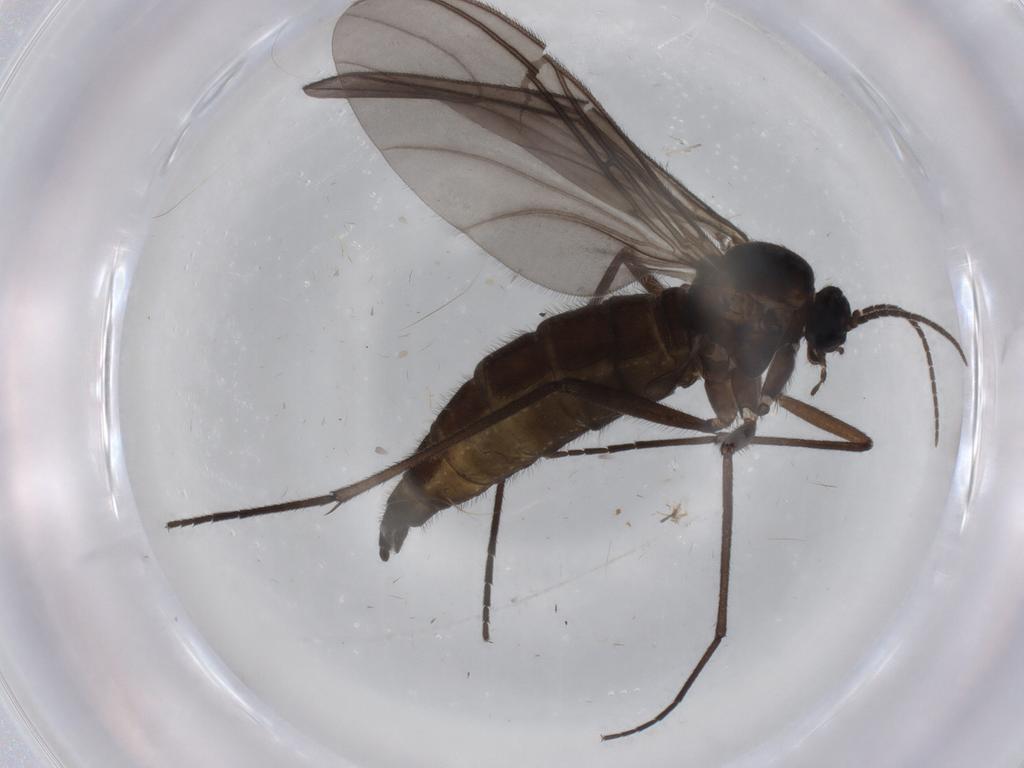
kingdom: Animalia
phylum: Arthropoda
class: Insecta
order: Diptera
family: Sciaridae
